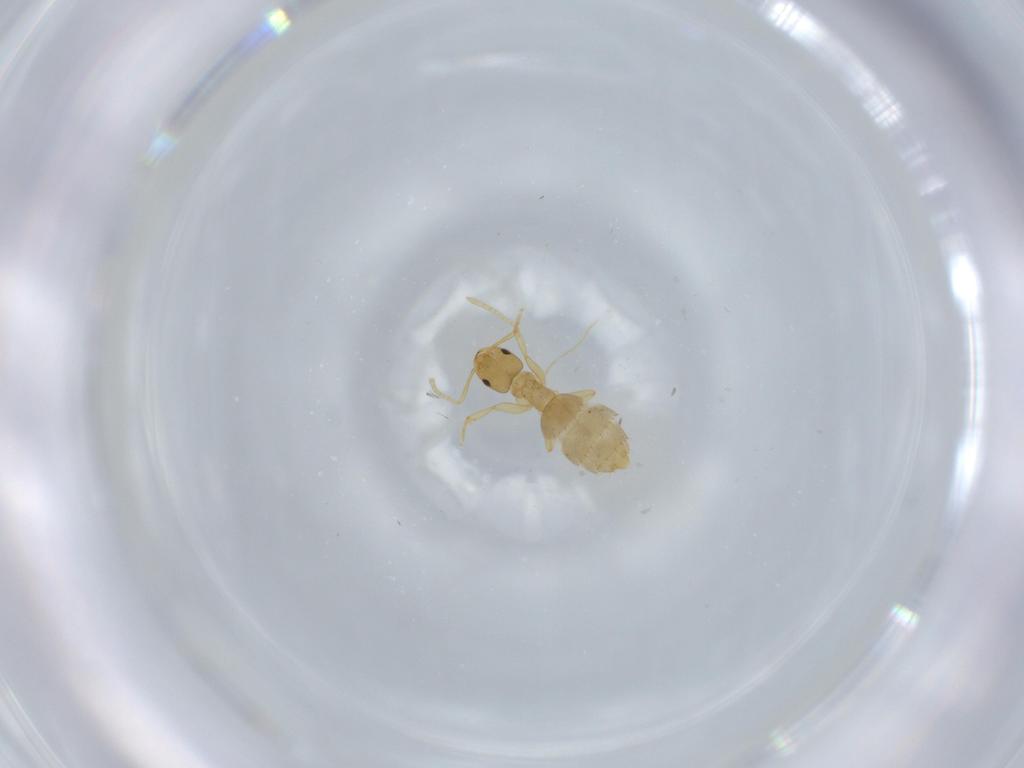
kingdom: Animalia
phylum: Arthropoda
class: Insecta
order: Hymenoptera
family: Formicidae
